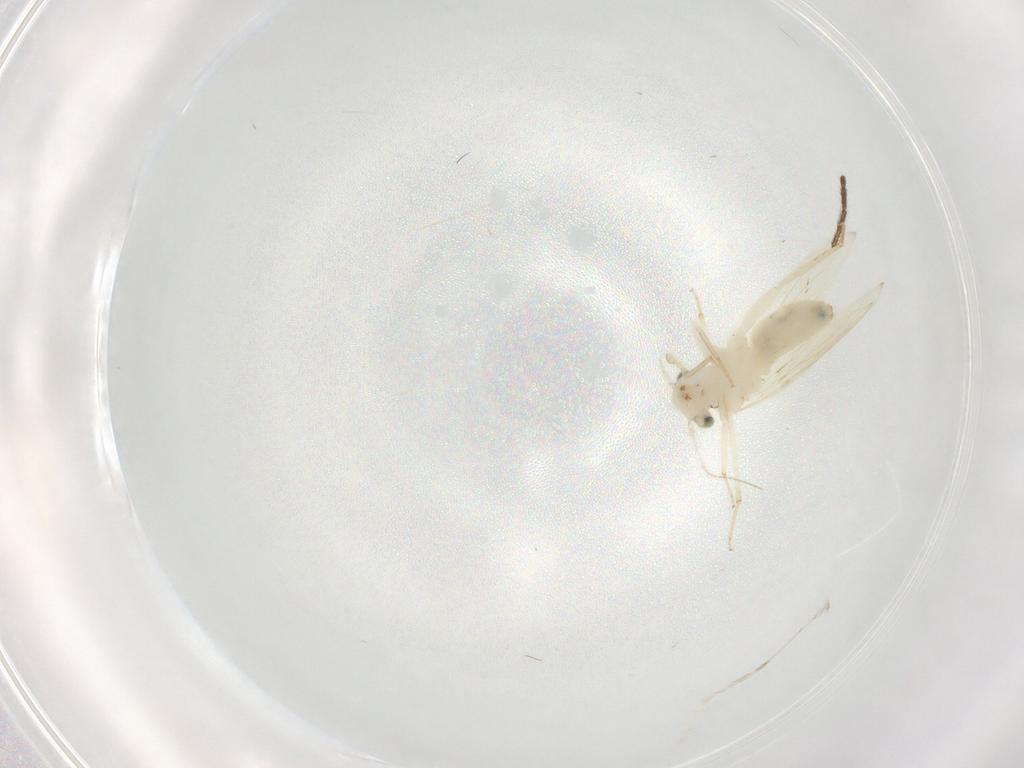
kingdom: Animalia
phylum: Arthropoda
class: Insecta
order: Psocodea
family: Lepidopsocidae
